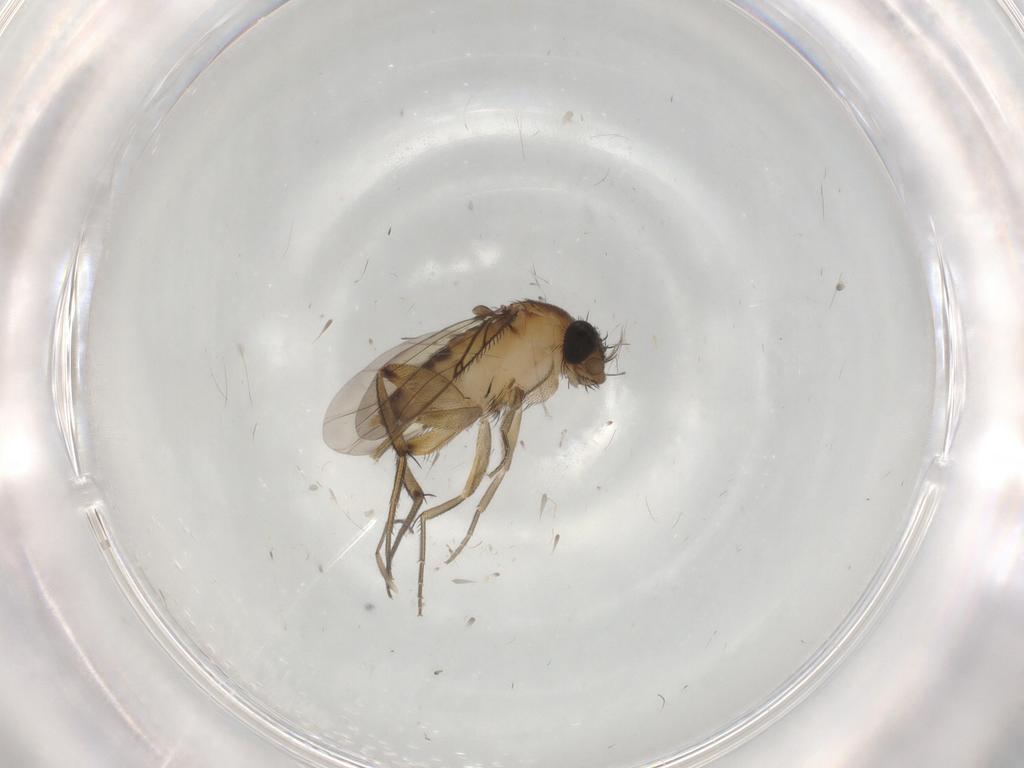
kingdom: Animalia
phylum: Arthropoda
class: Insecta
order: Diptera
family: Phoridae
